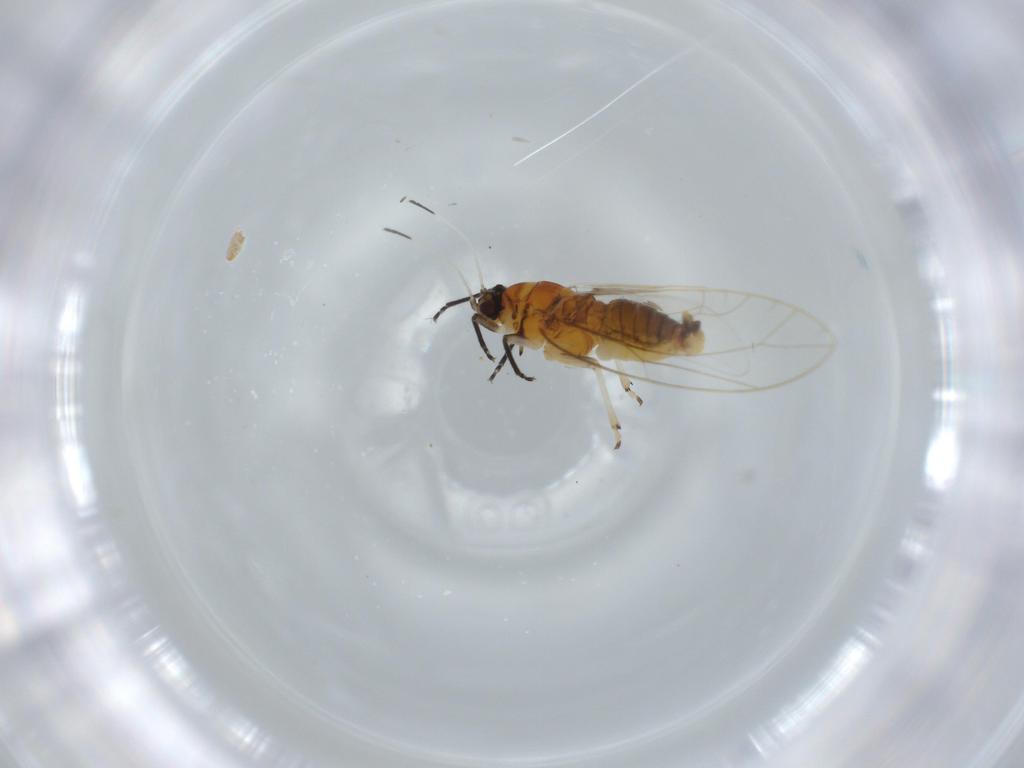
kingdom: Animalia
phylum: Arthropoda
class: Insecta
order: Hemiptera
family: Triozidae
